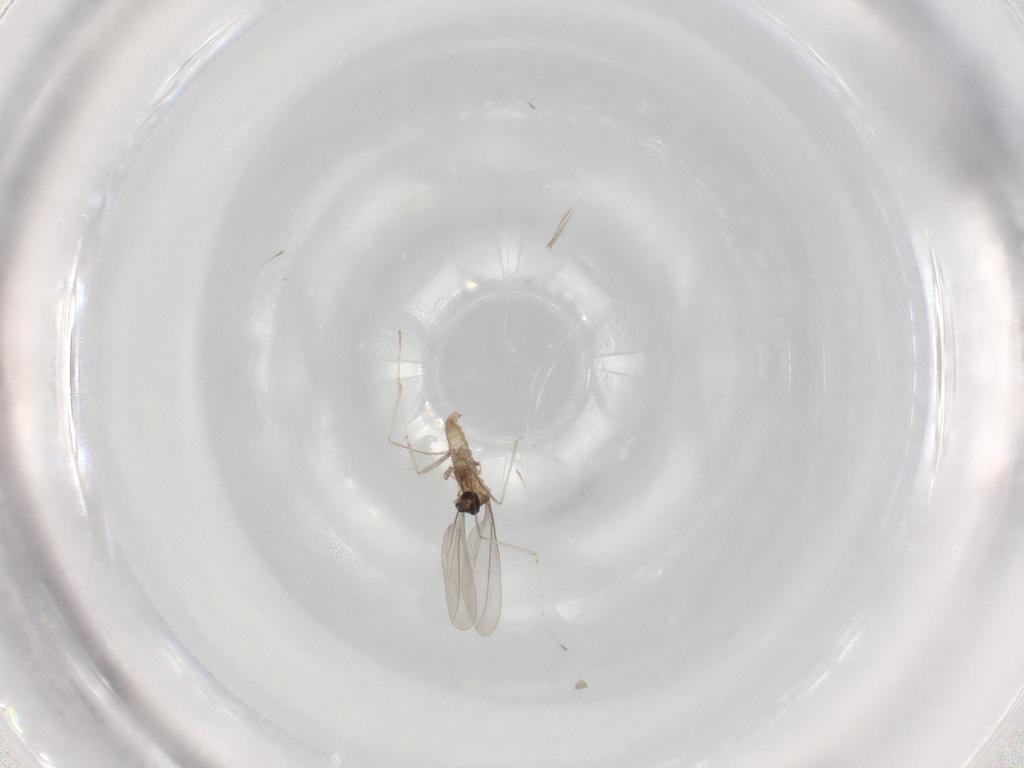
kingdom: Animalia
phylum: Arthropoda
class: Insecta
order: Diptera
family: Cecidomyiidae
